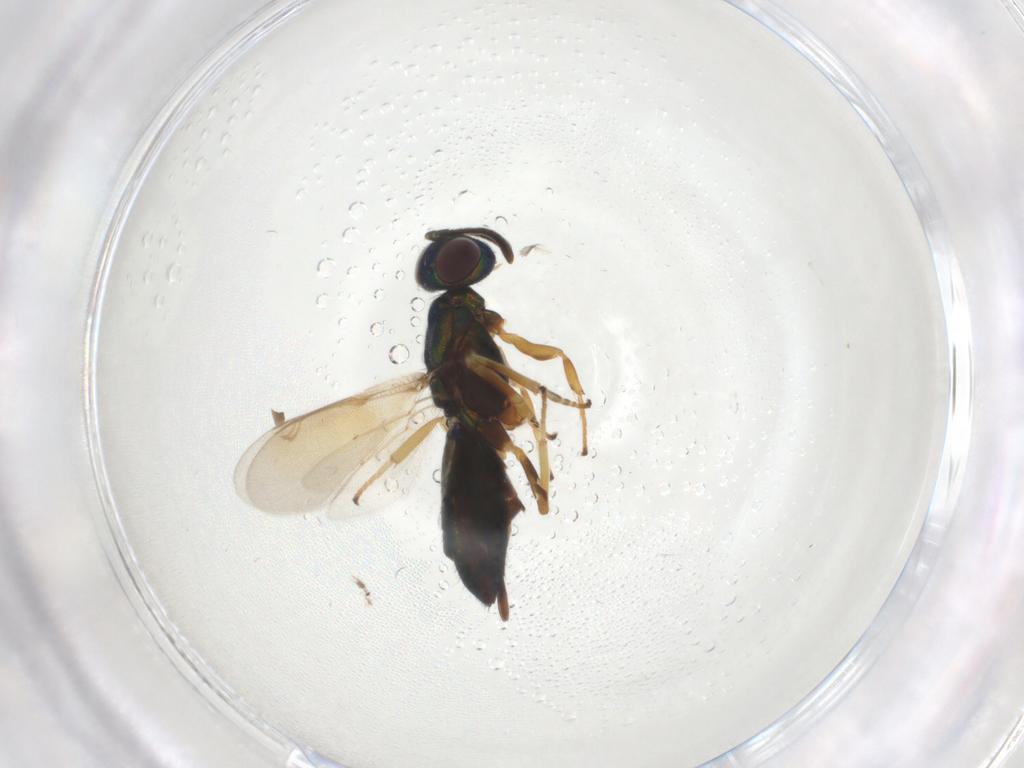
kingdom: Animalia
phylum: Arthropoda
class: Insecta
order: Hymenoptera
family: Eupelmidae
